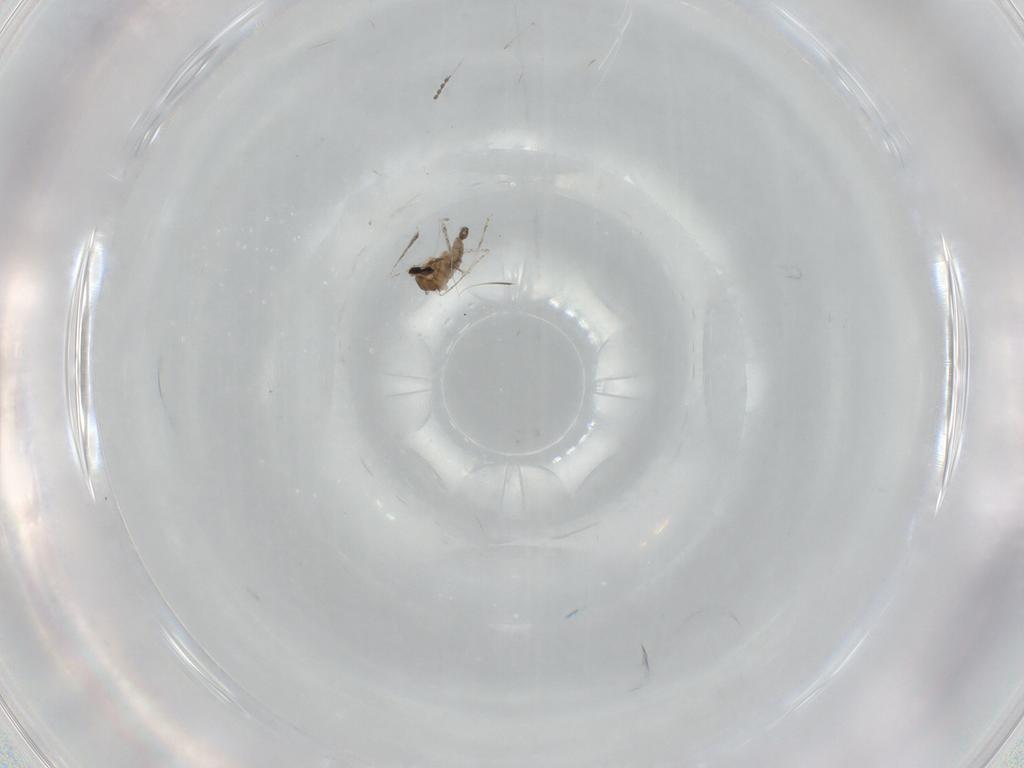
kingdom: Animalia
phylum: Arthropoda
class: Insecta
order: Diptera
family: Cecidomyiidae
